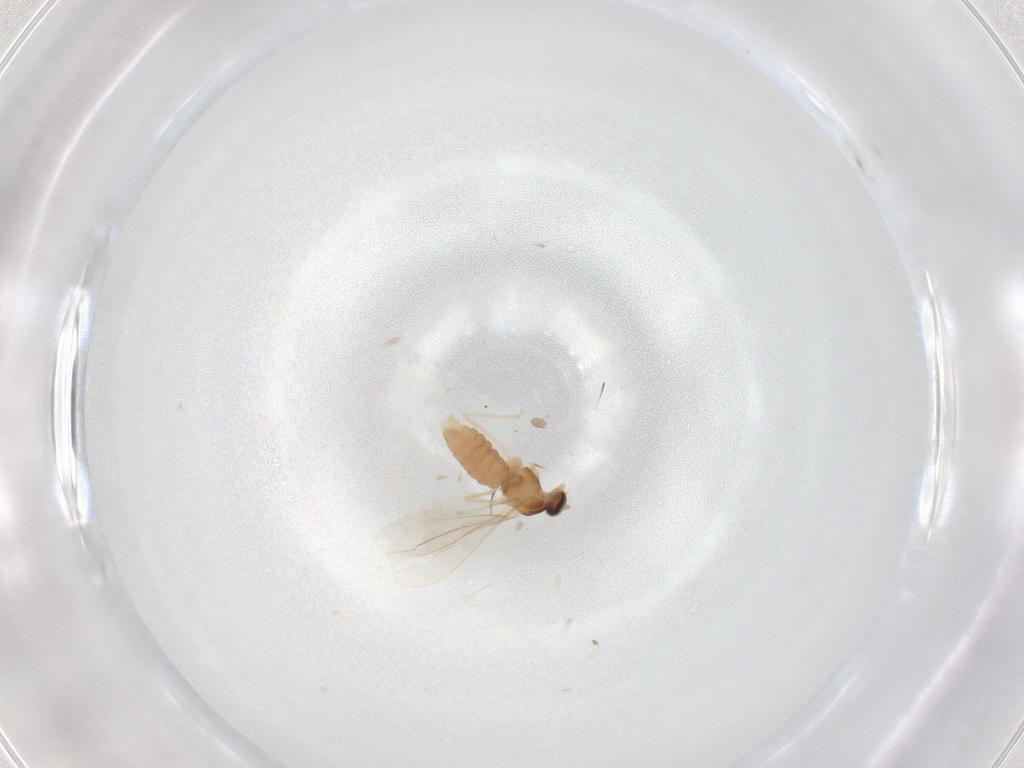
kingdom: Animalia
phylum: Arthropoda
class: Insecta
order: Diptera
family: Cecidomyiidae
